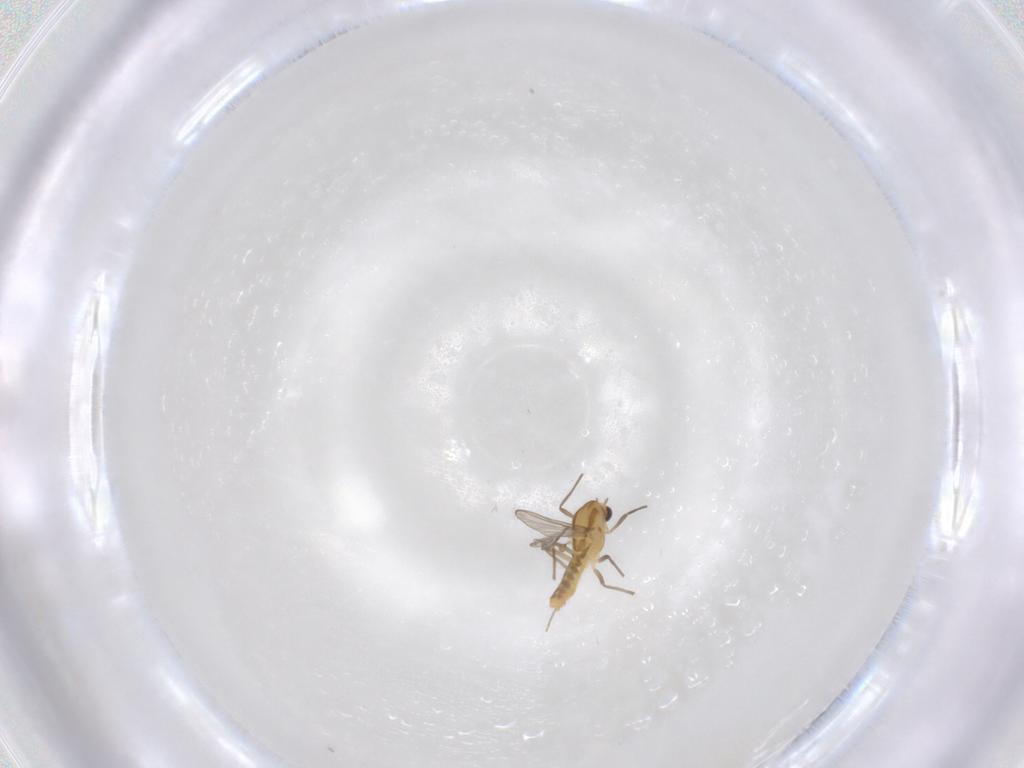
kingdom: Animalia
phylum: Arthropoda
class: Insecta
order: Diptera
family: Chironomidae
